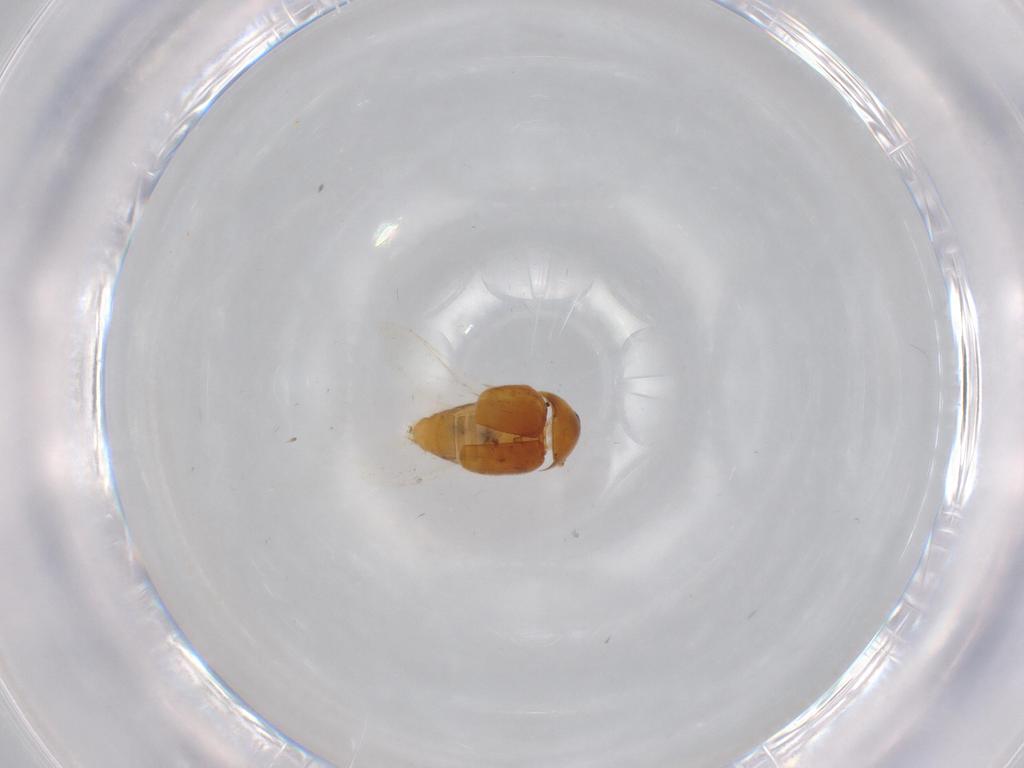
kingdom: Animalia
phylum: Arthropoda
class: Insecta
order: Coleoptera
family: Corylophidae
